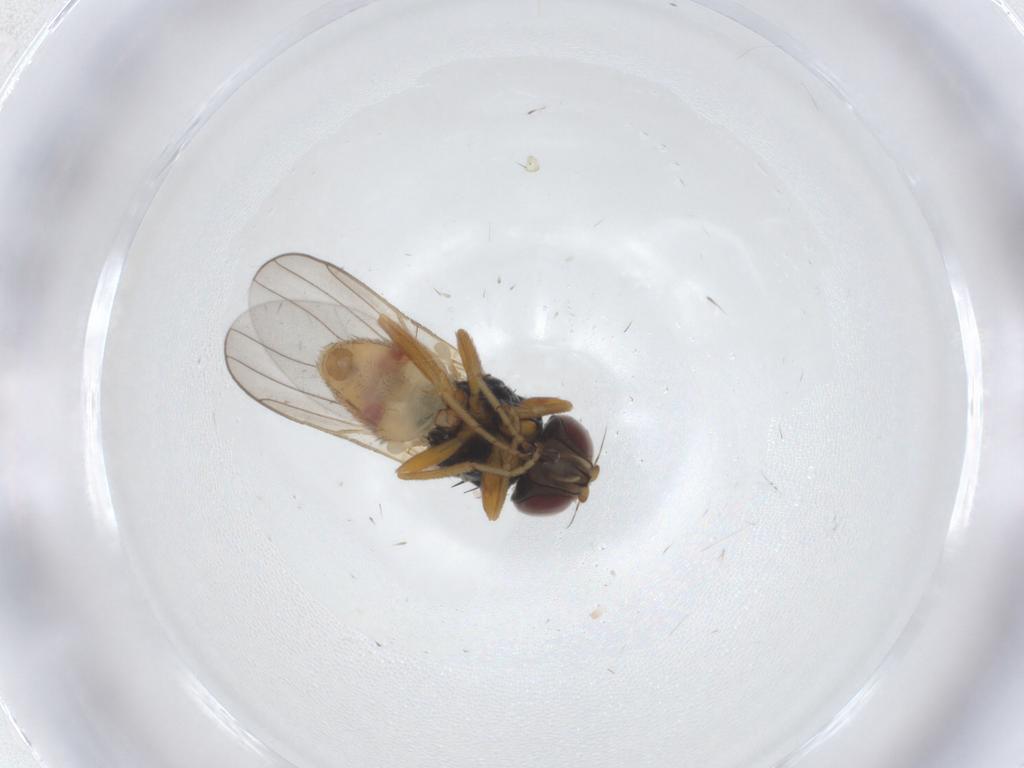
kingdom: Animalia
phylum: Arthropoda
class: Insecta
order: Diptera
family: Chloropidae
